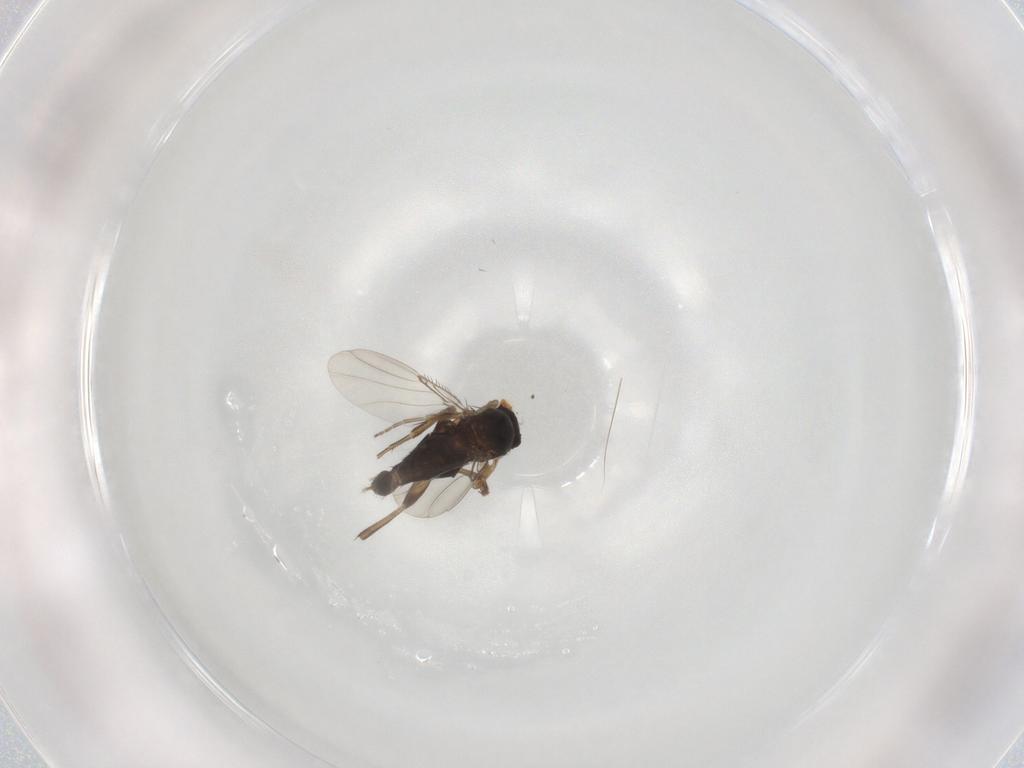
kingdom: Animalia
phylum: Arthropoda
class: Insecta
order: Diptera
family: Phoridae
